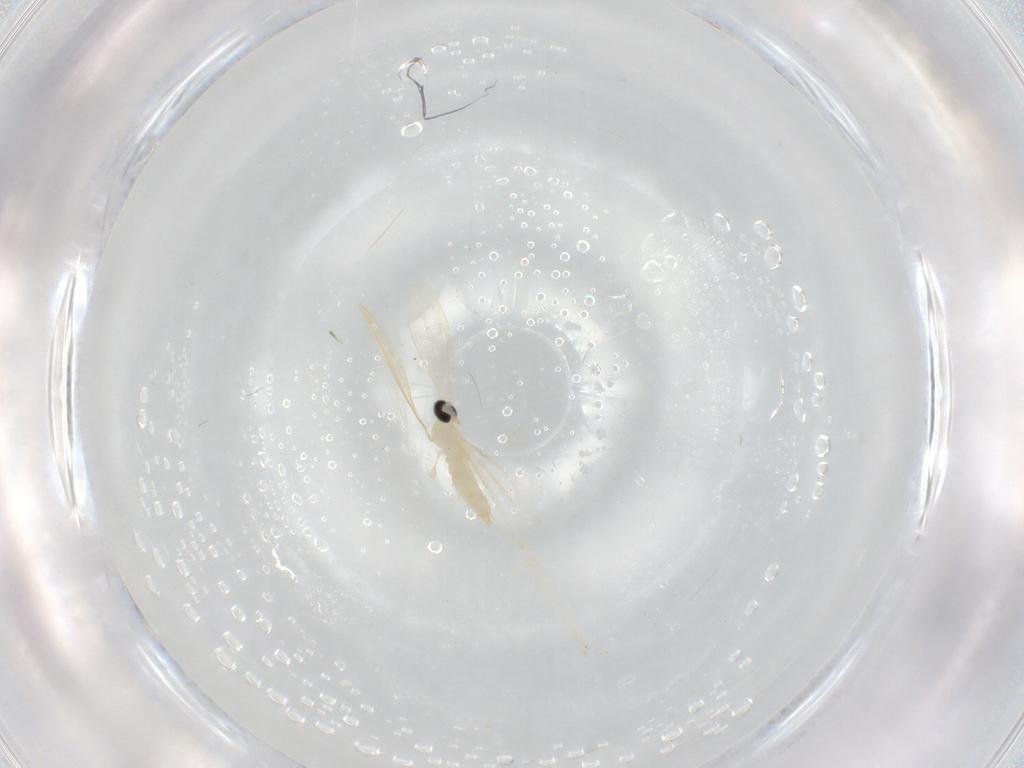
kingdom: Animalia
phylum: Arthropoda
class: Insecta
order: Diptera
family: Cecidomyiidae
